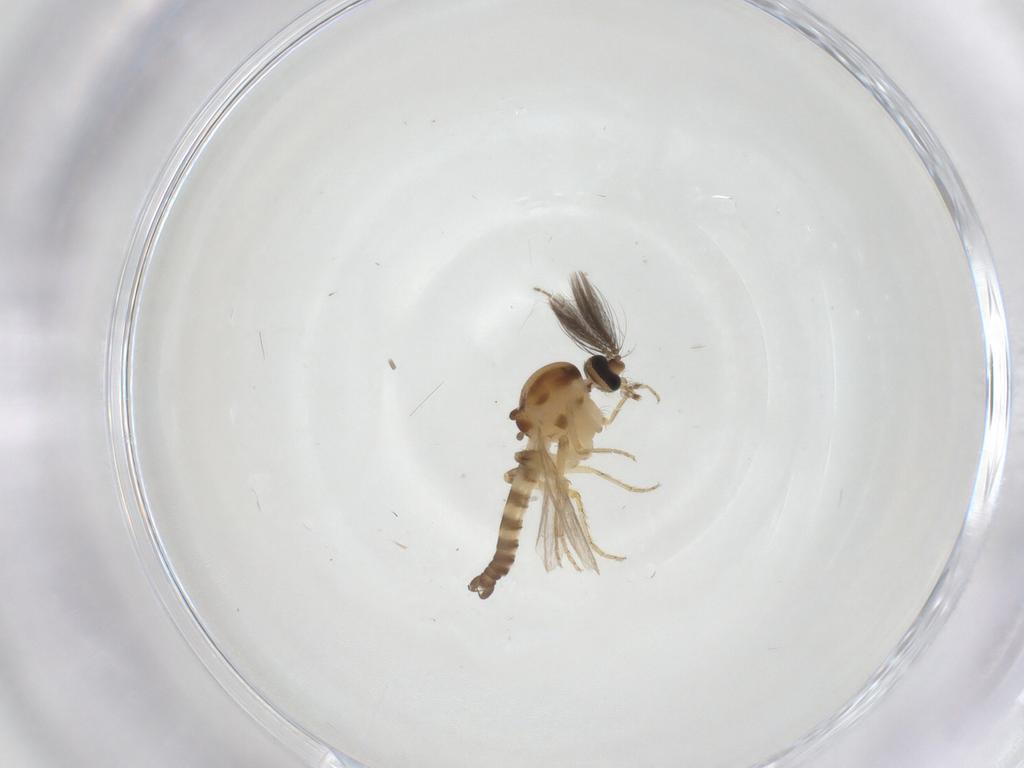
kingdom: Animalia
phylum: Arthropoda
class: Insecta
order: Diptera
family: Ceratopogonidae
